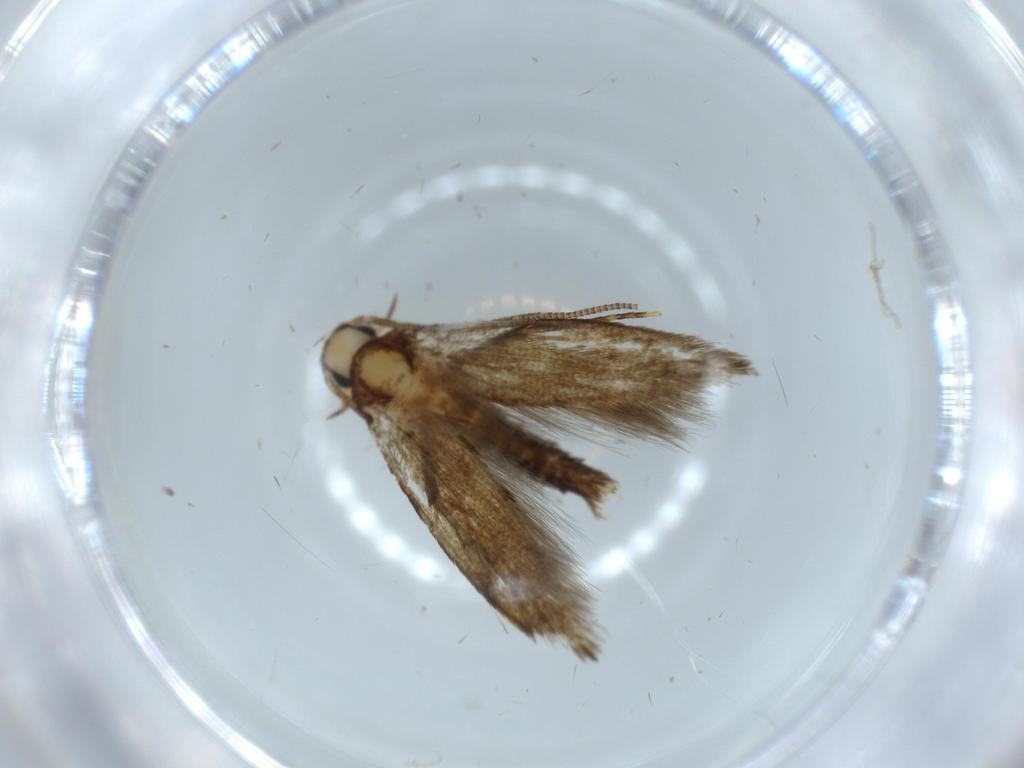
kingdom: Animalia
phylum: Arthropoda
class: Insecta
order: Lepidoptera
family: Tineidae
